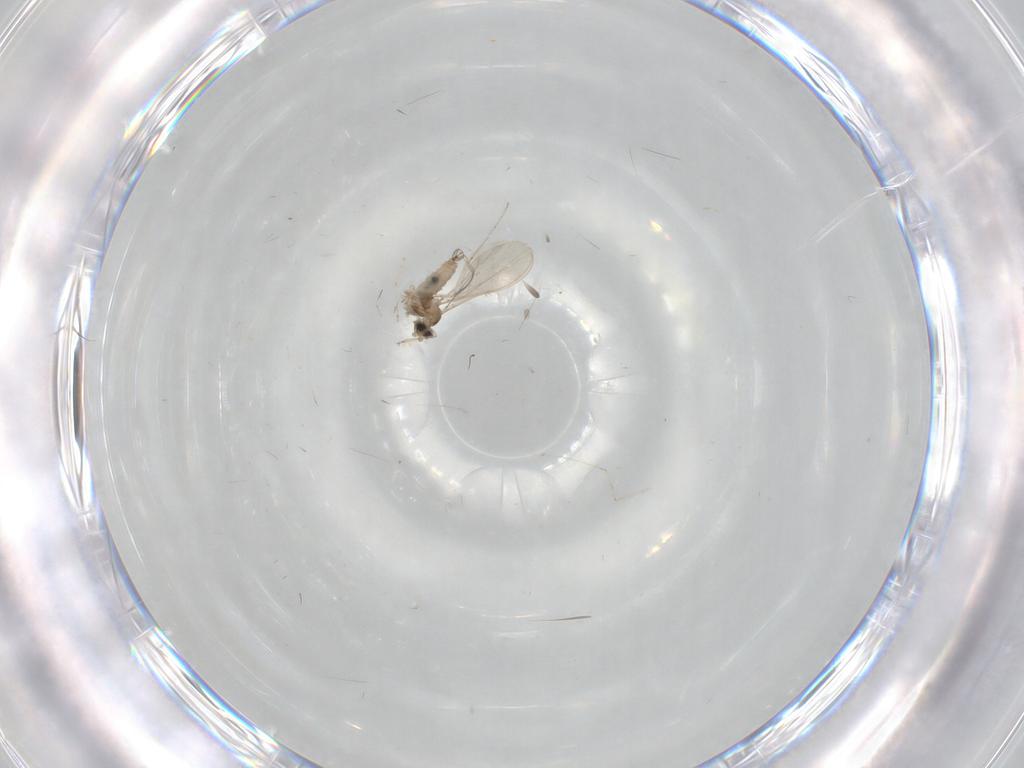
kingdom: Animalia
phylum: Arthropoda
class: Insecta
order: Diptera
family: Cecidomyiidae
